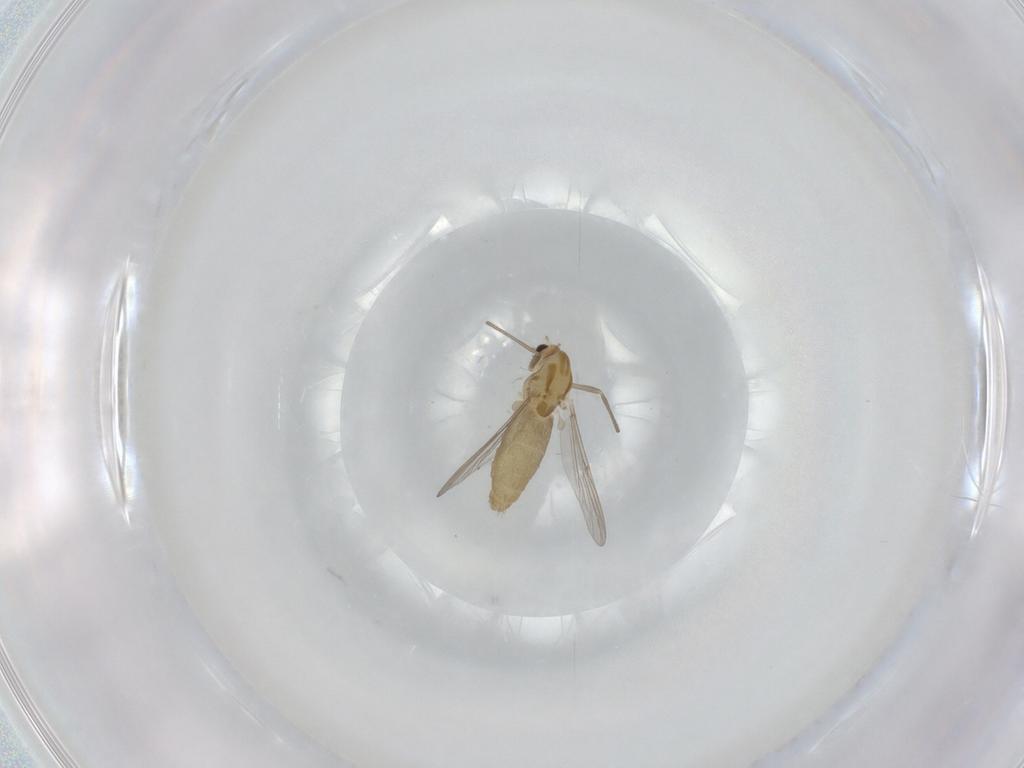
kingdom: Animalia
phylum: Arthropoda
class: Insecta
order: Diptera
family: Chironomidae
